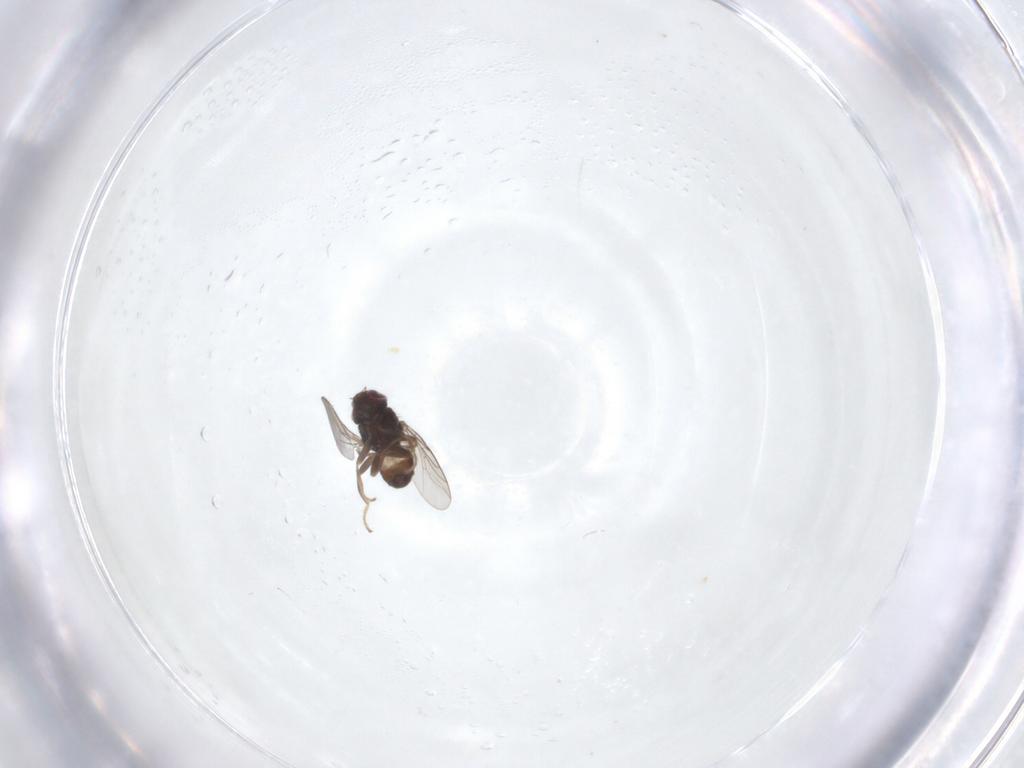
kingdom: Animalia
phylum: Arthropoda
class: Insecta
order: Diptera
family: Chloropidae
